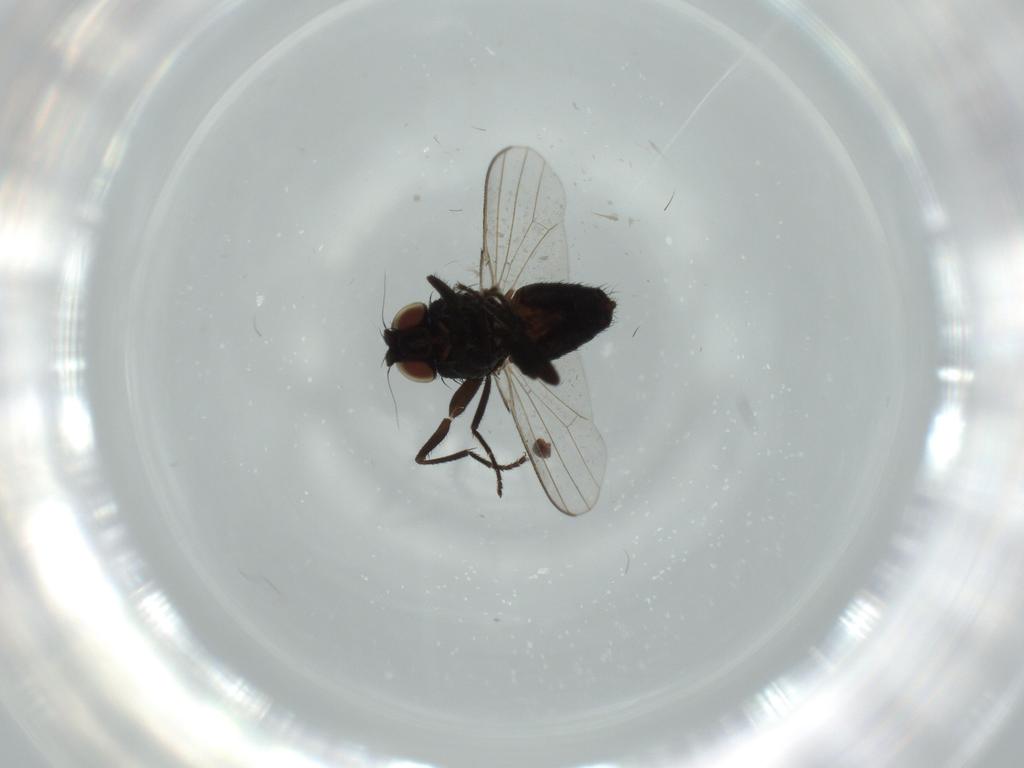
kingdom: Animalia
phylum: Arthropoda
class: Insecta
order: Diptera
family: Milichiidae
